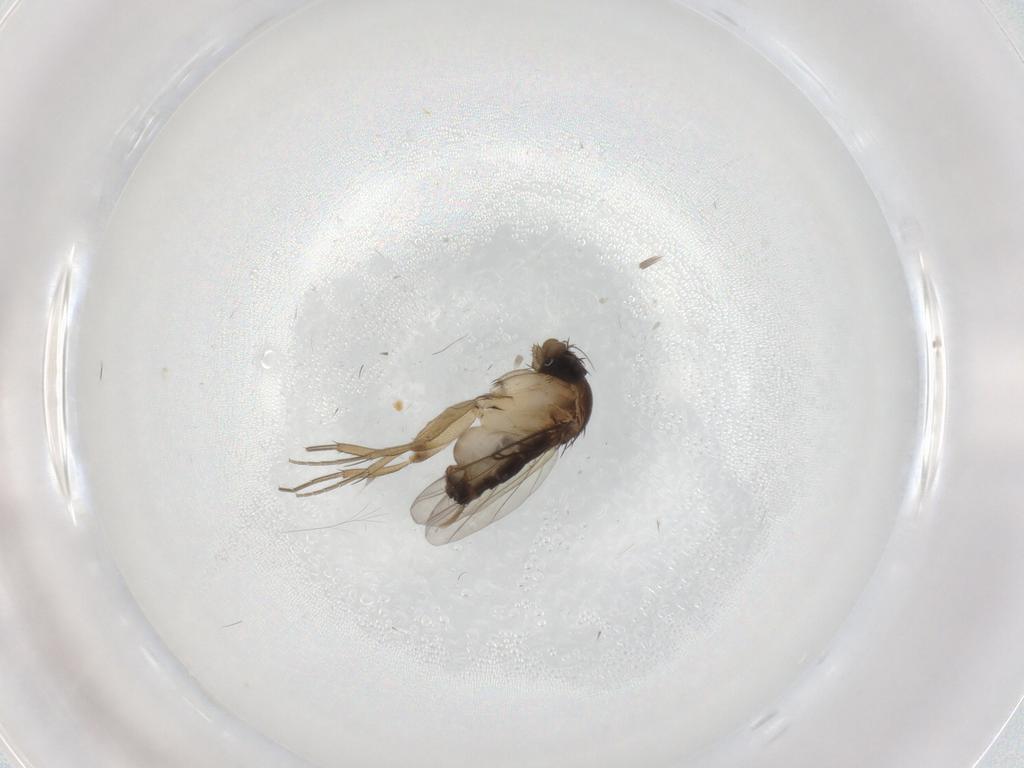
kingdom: Animalia
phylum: Arthropoda
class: Insecta
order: Diptera
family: Phoridae
